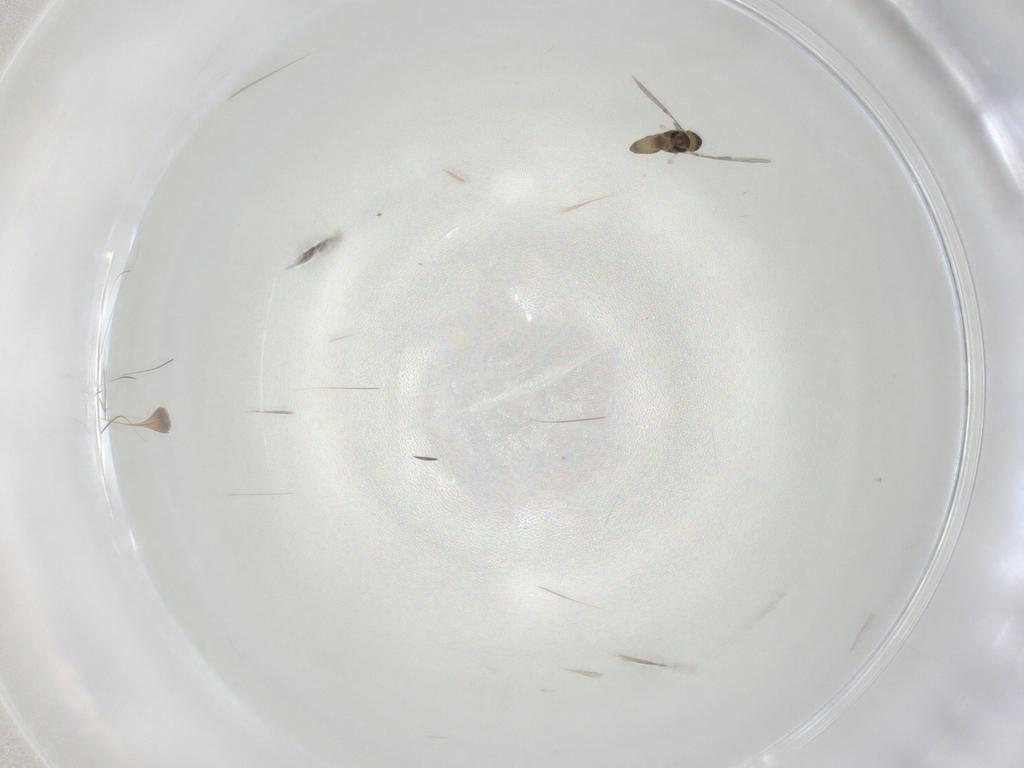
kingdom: Animalia
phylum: Arthropoda
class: Insecta
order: Diptera
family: Chironomidae
